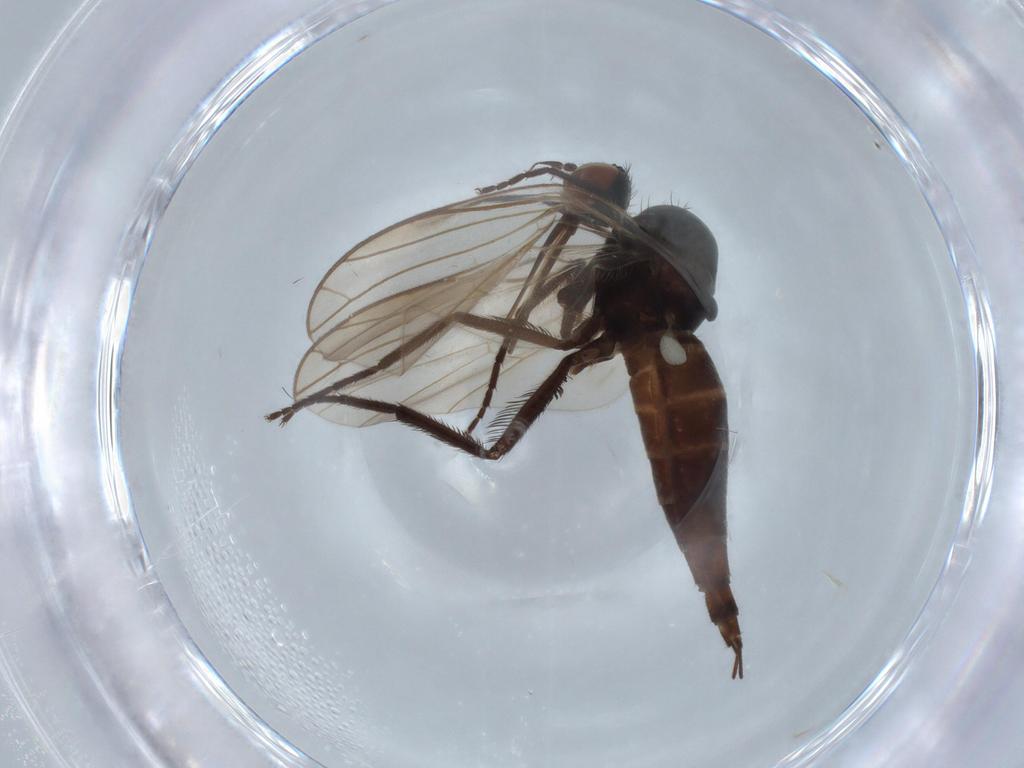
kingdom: Animalia
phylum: Arthropoda
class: Insecta
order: Diptera
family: Empididae
